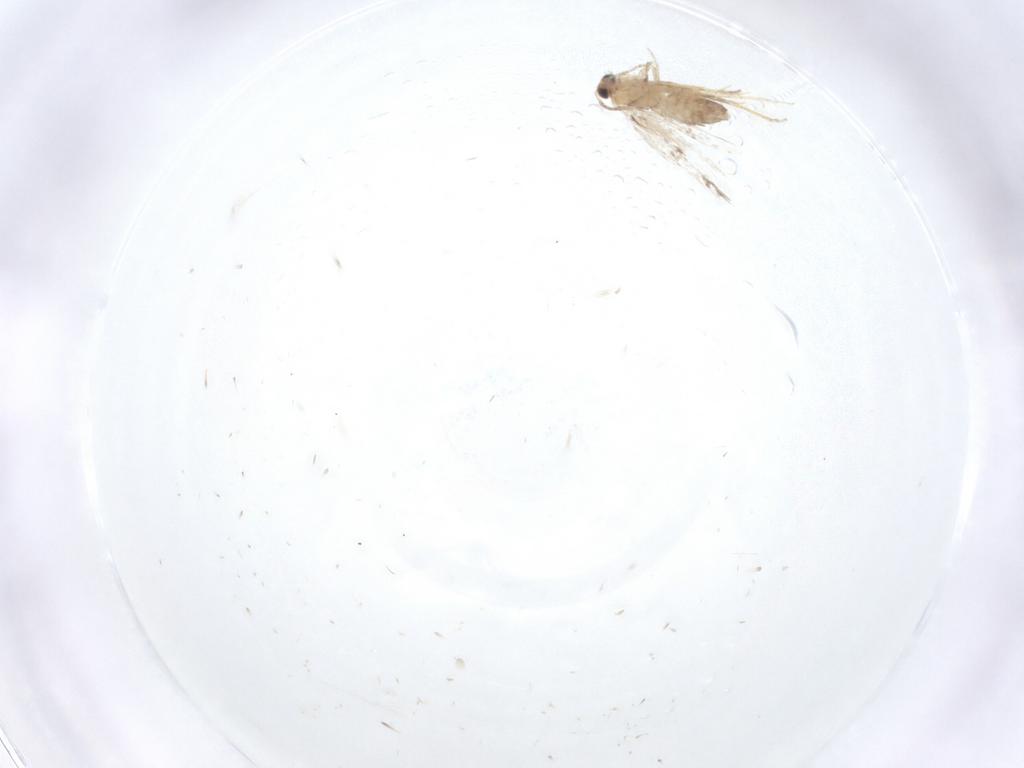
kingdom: Animalia
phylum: Arthropoda
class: Insecta
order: Lepidoptera
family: Nepticulidae
